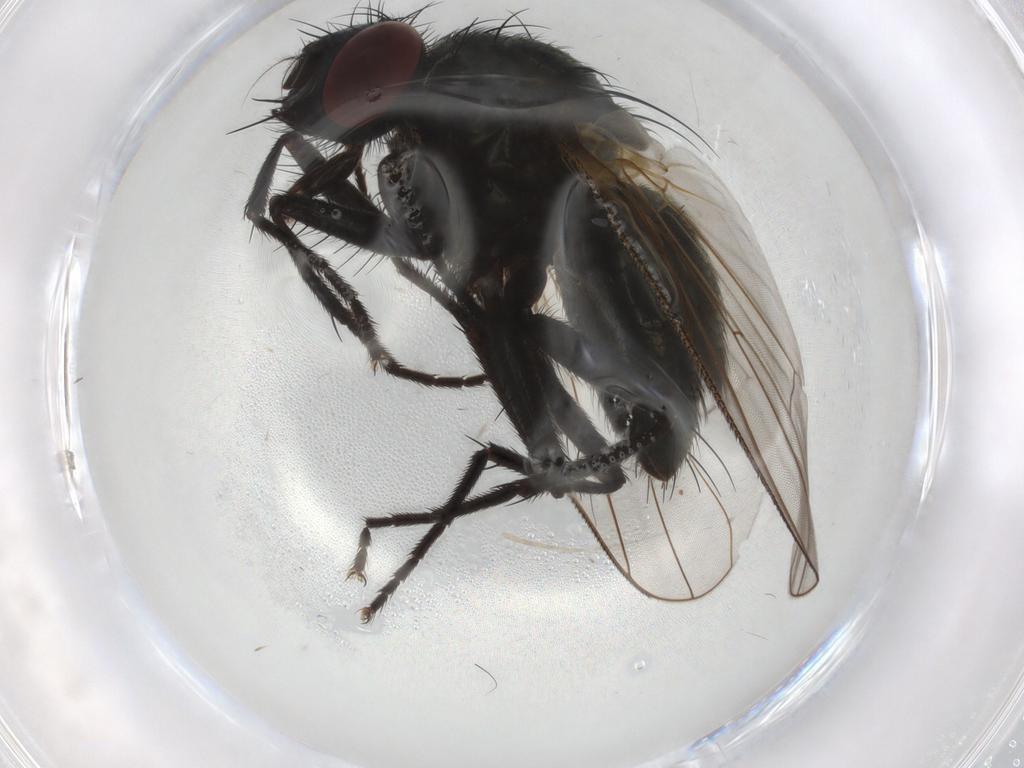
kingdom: Animalia
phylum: Arthropoda
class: Insecta
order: Diptera
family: Muscidae
